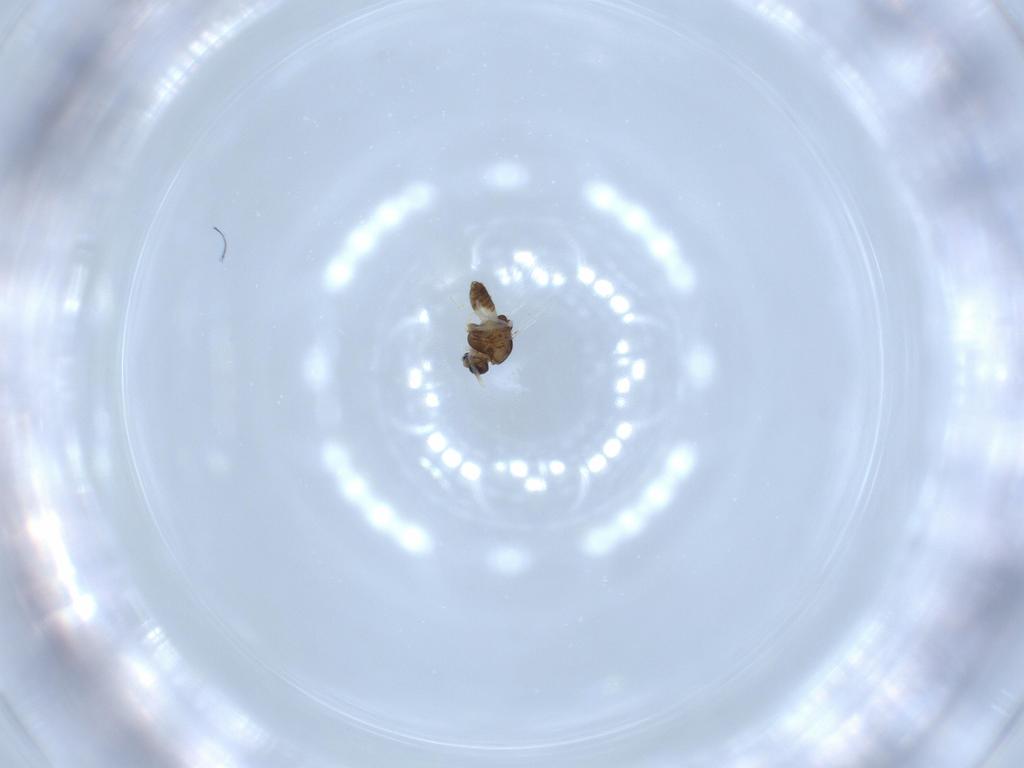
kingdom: Animalia
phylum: Arthropoda
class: Insecta
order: Diptera
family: Chironomidae
